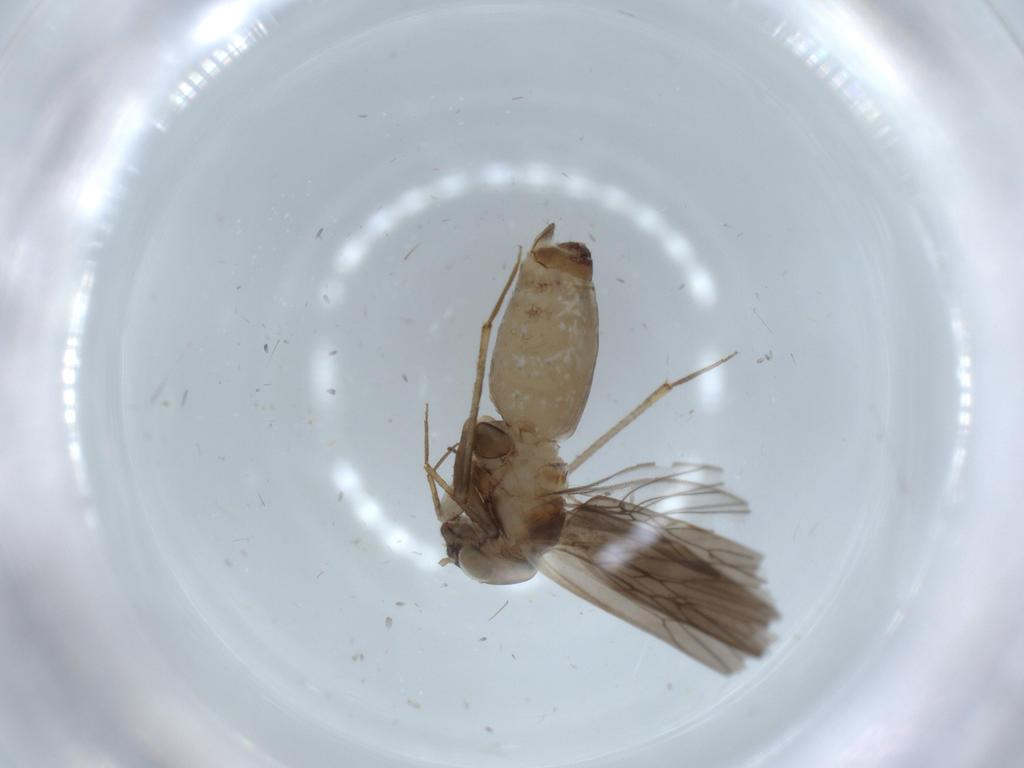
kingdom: Animalia
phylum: Arthropoda
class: Insecta
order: Psocodea
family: Lepidopsocidae
